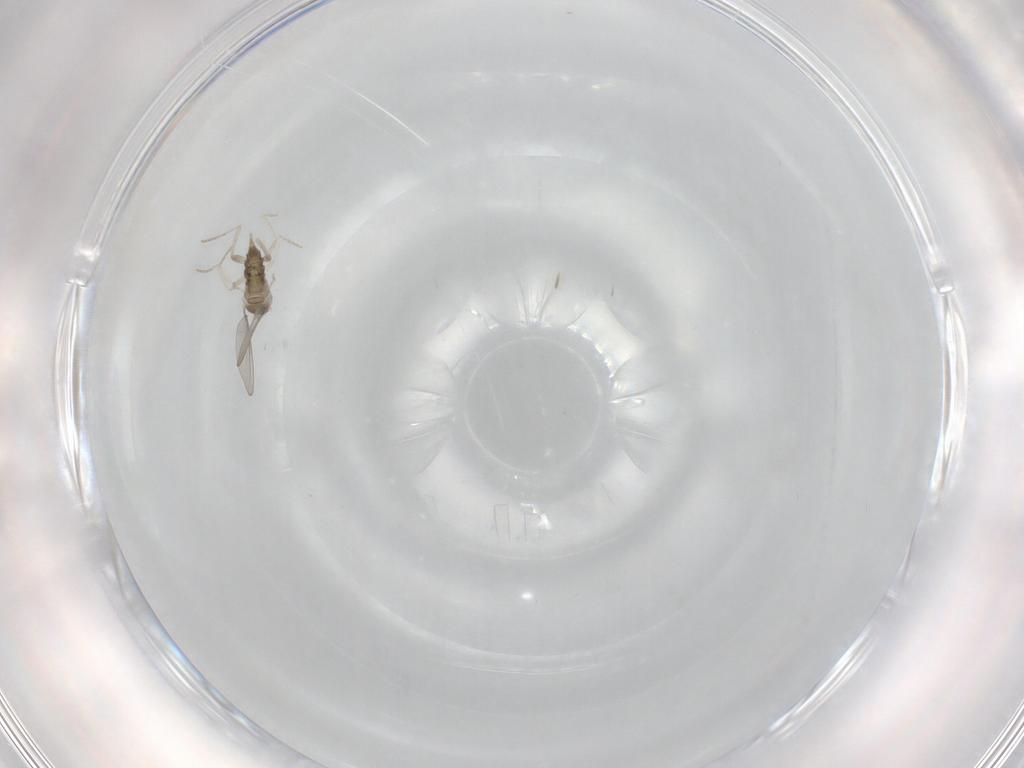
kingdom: Animalia
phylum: Arthropoda
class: Insecta
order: Diptera
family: Cecidomyiidae
